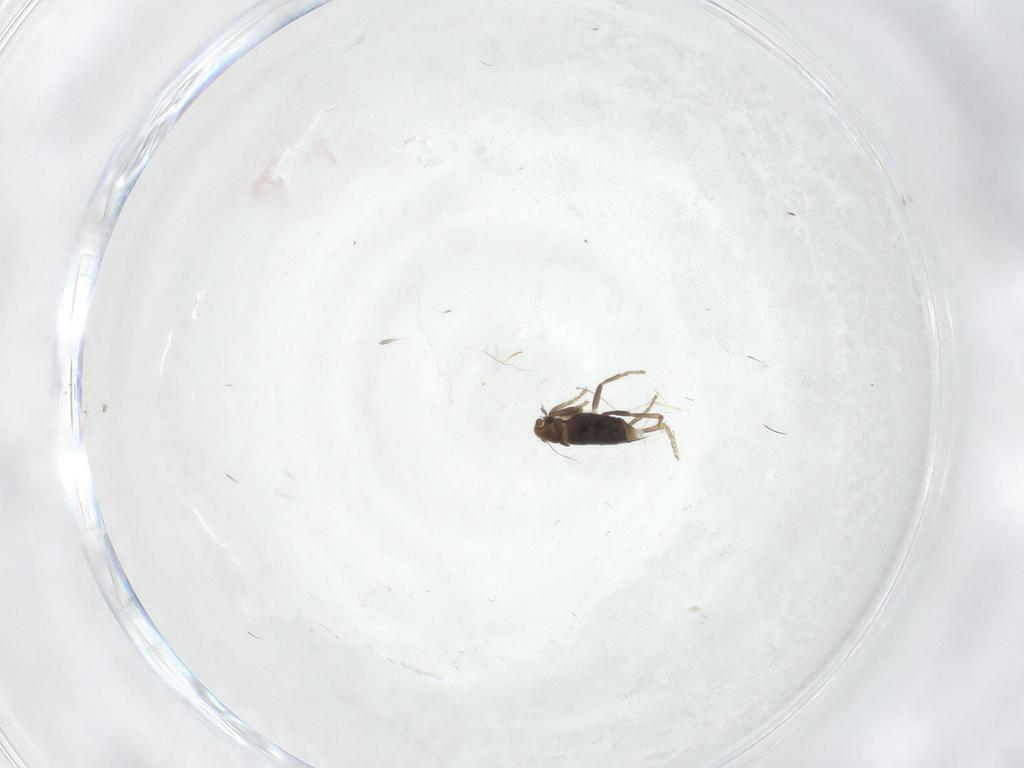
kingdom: Animalia
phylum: Arthropoda
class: Insecta
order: Diptera
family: Phoridae
